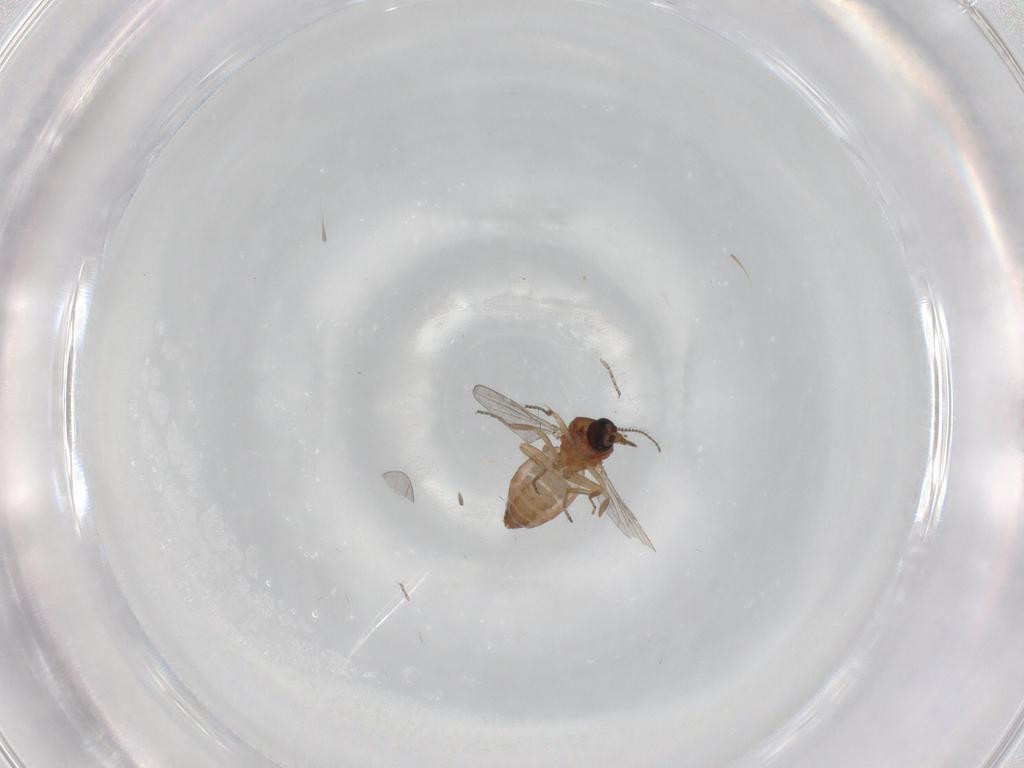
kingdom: Animalia
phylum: Arthropoda
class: Insecta
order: Diptera
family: Ceratopogonidae
